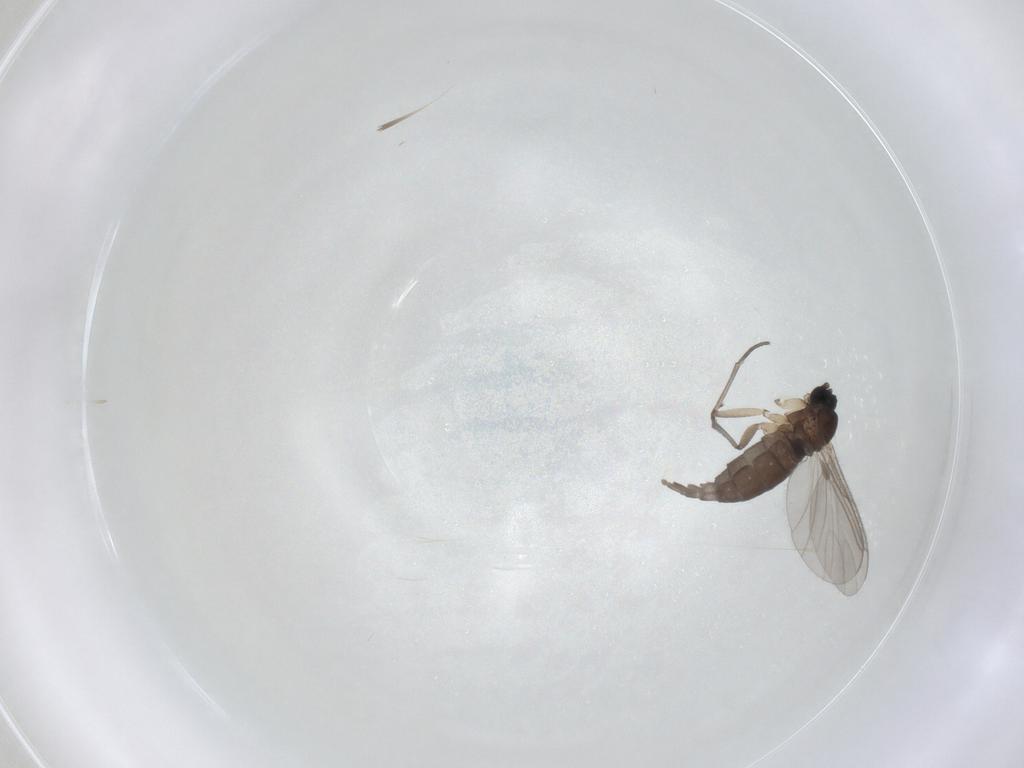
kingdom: Animalia
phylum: Arthropoda
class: Insecta
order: Diptera
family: Sciaridae
